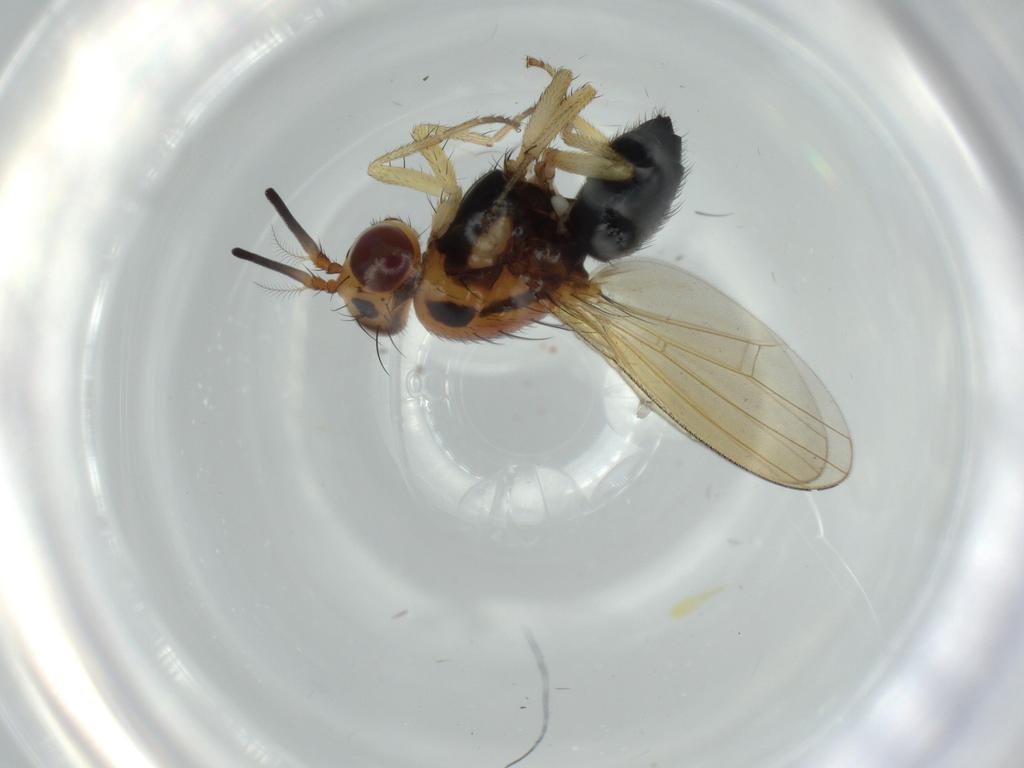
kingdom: Animalia
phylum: Arthropoda
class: Insecta
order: Diptera
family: Lauxaniidae
